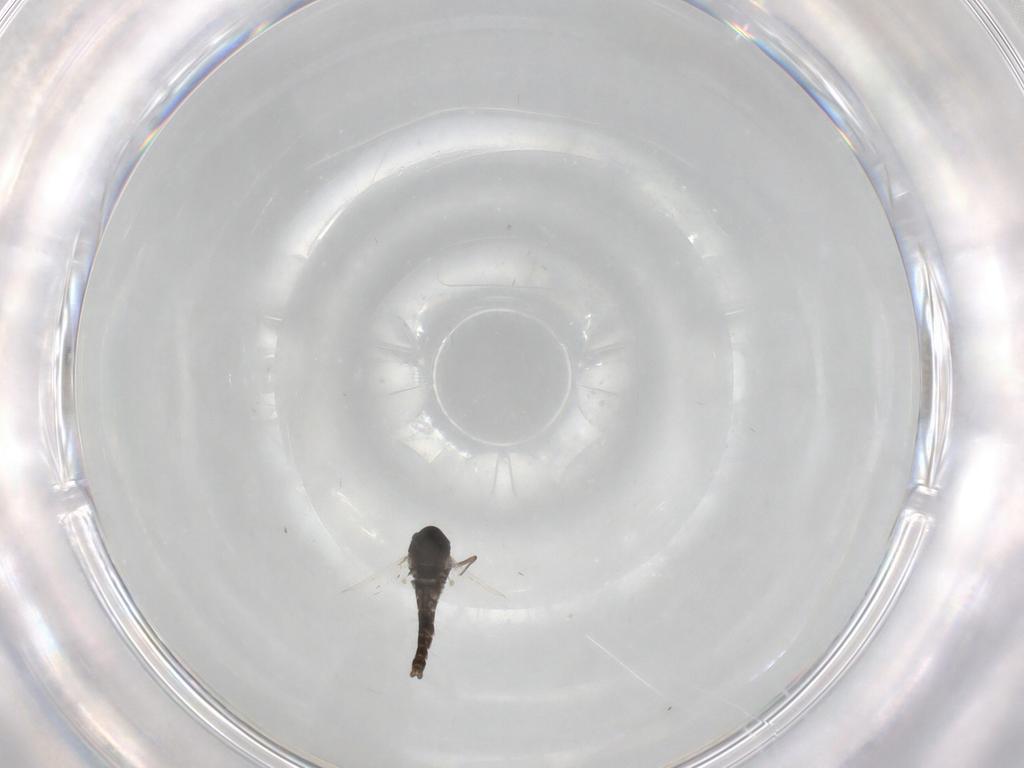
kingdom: Animalia
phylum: Arthropoda
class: Insecta
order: Diptera
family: Chironomidae
